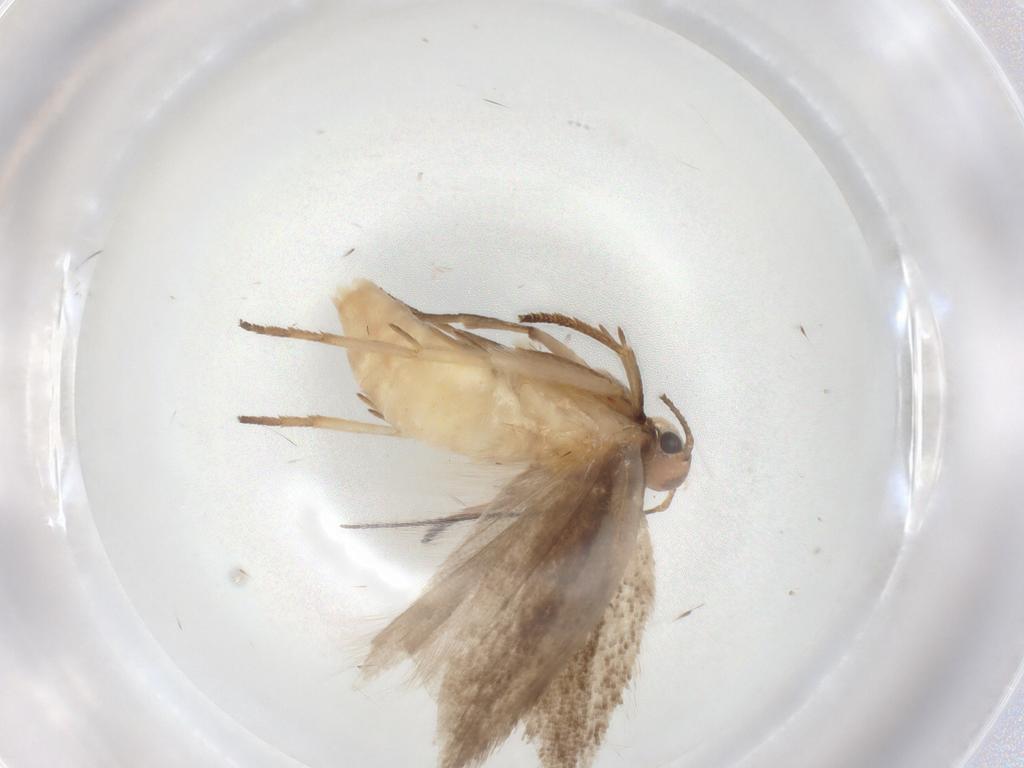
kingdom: Animalia
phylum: Arthropoda
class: Insecta
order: Lepidoptera
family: Gelechiidae
